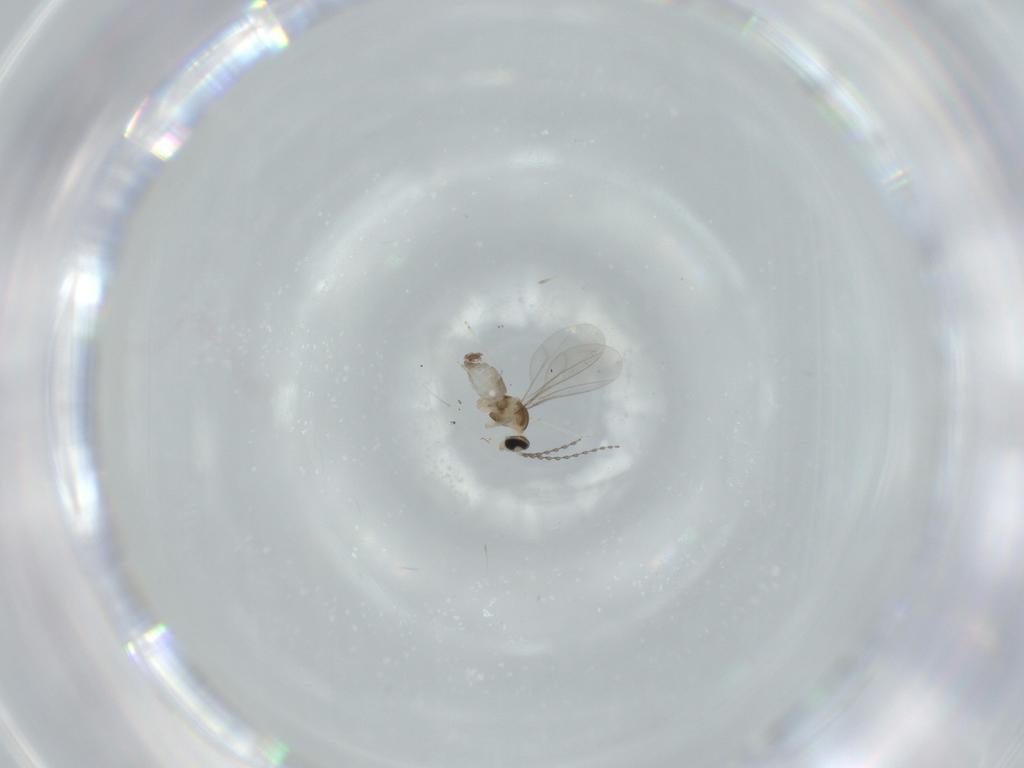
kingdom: Animalia
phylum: Arthropoda
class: Insecta
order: Diptera
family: Cecidomyiidae
